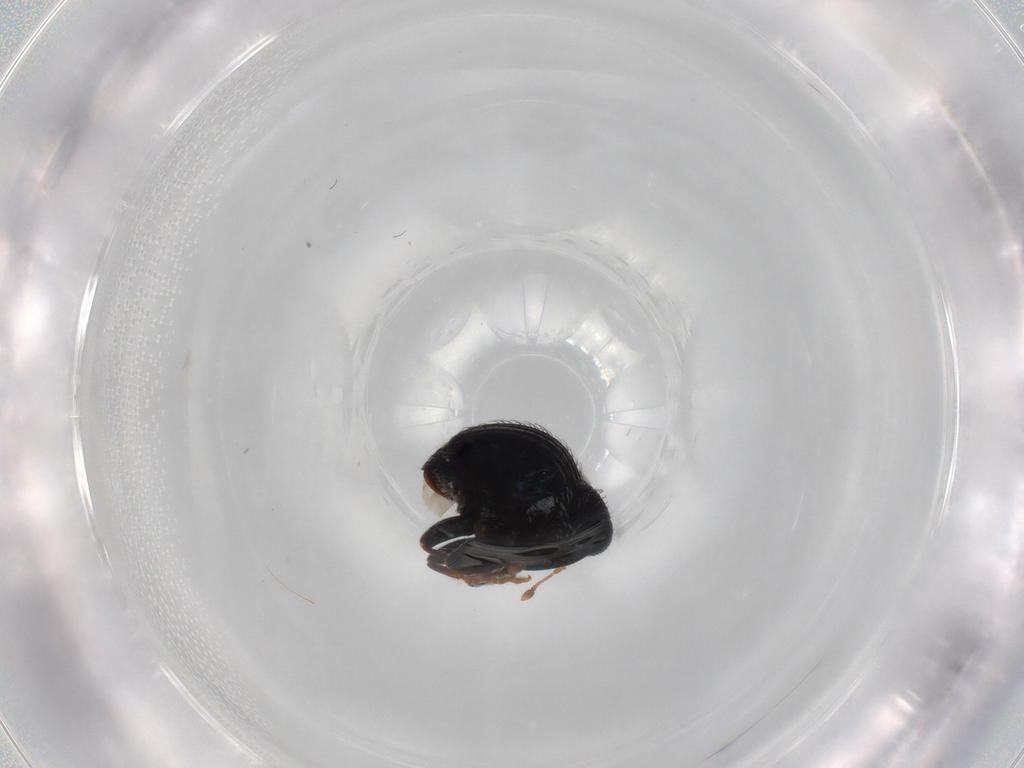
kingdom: Animalia
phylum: Arthropoda
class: Insecta
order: Coleoptera
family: Curculionidae
